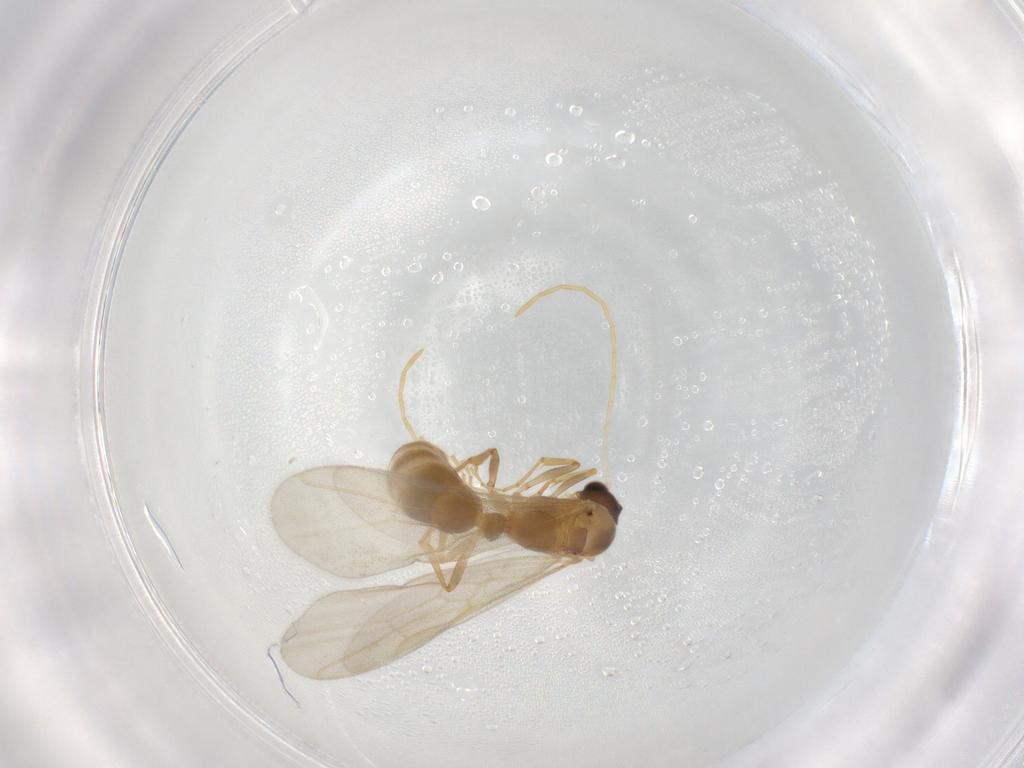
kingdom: Animalia
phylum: Arthropoda
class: Insecta
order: Hymenoptera
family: Formicidae
